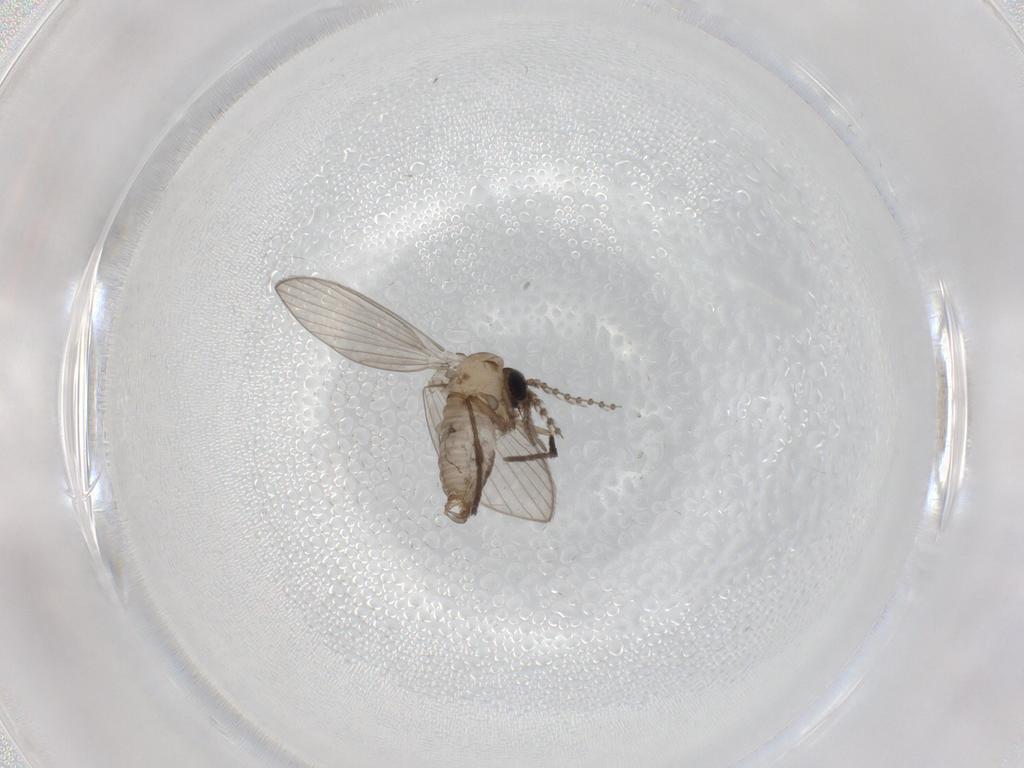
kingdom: Animalia
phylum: Arthropoda
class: Insecta
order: Diptera
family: Psychodidae
